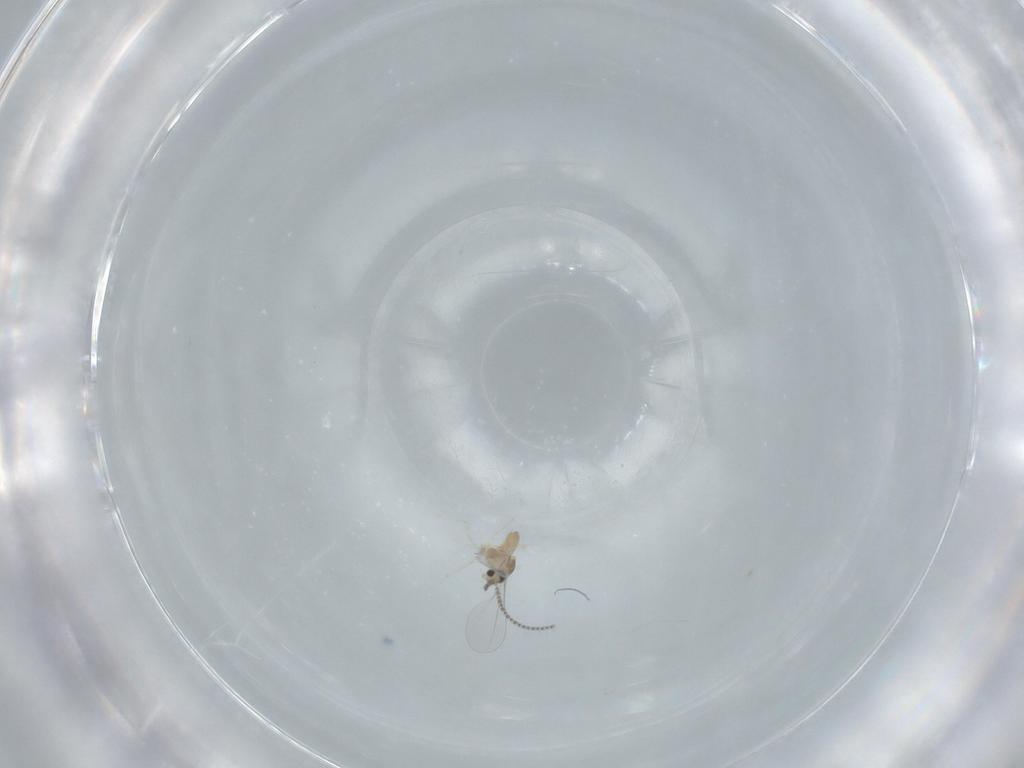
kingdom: Animalia
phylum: Arthropoda
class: Insecta
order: Diptera
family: Cecidomyiidae
